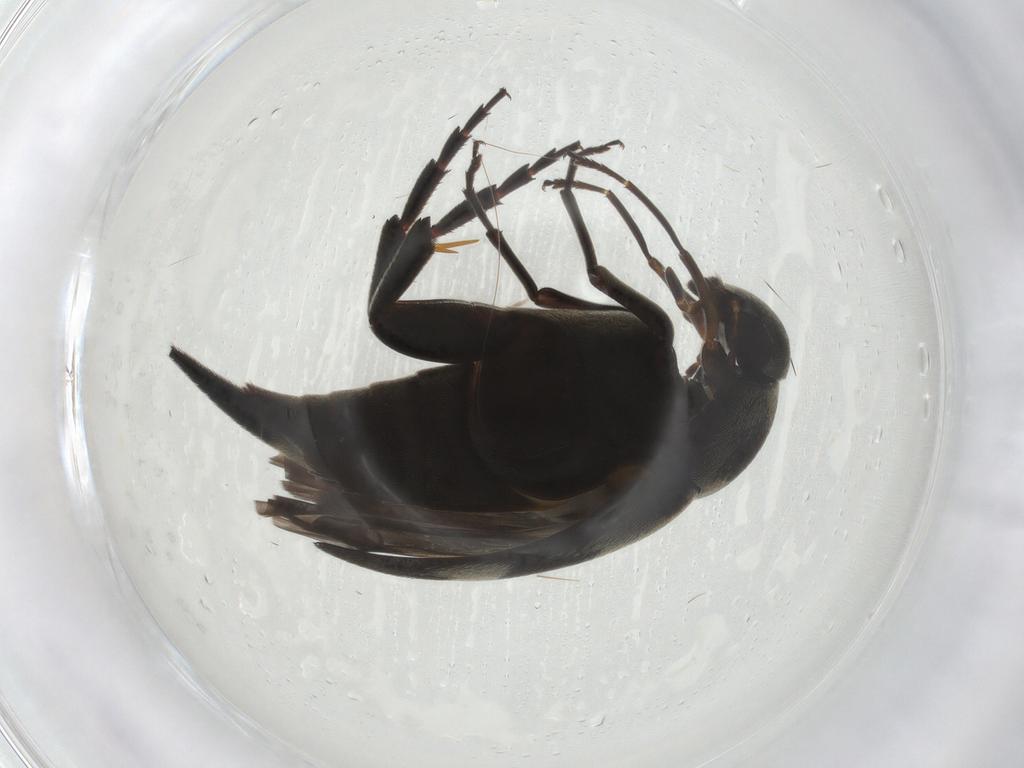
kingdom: Animalia
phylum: Arthropoda
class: Insecta
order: Coleoptera
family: Mordellidae
